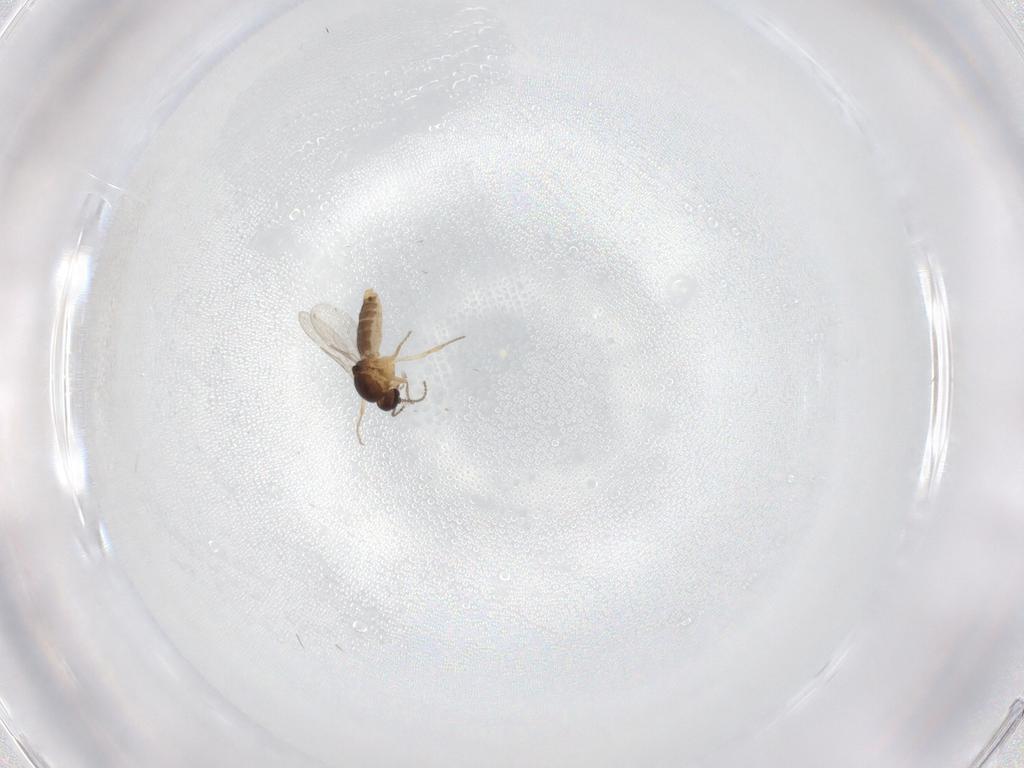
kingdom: Animalia
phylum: Arthropoda
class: Insecta
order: Diptera
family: Ceratopogonidae
